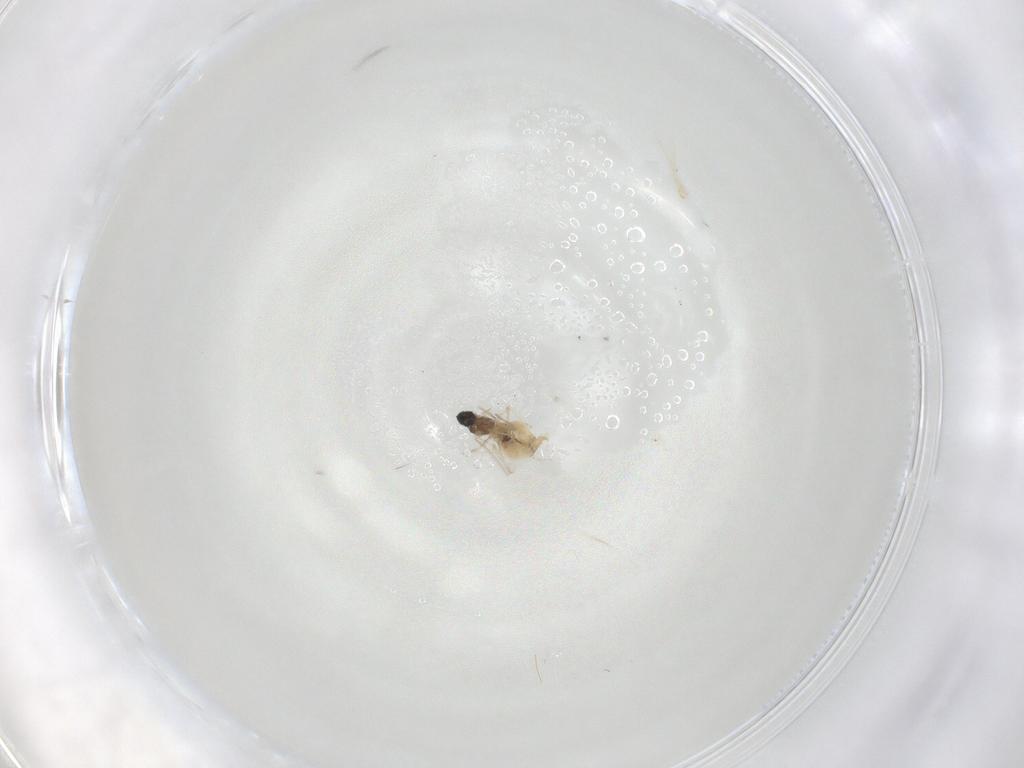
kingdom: Animalia
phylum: Arthropoda
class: Insecta
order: Diptera
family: Cecidomyiidae
